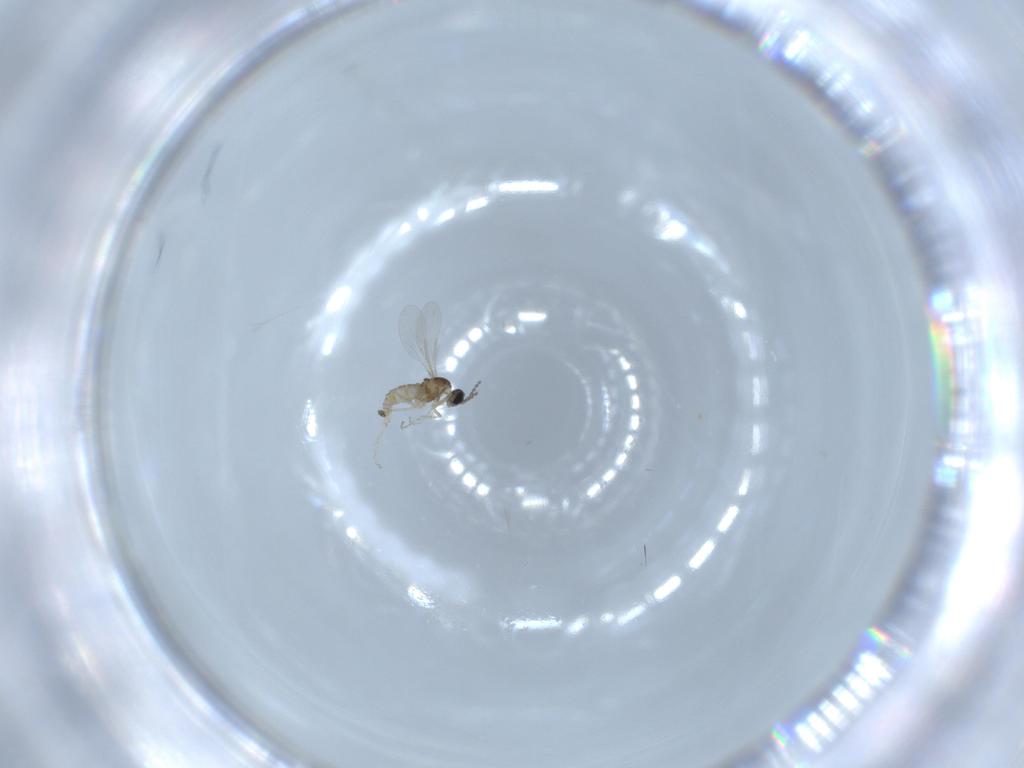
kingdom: Animalia
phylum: Arthropoda
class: Insecta
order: Diptera
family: Cecidomyiidae
